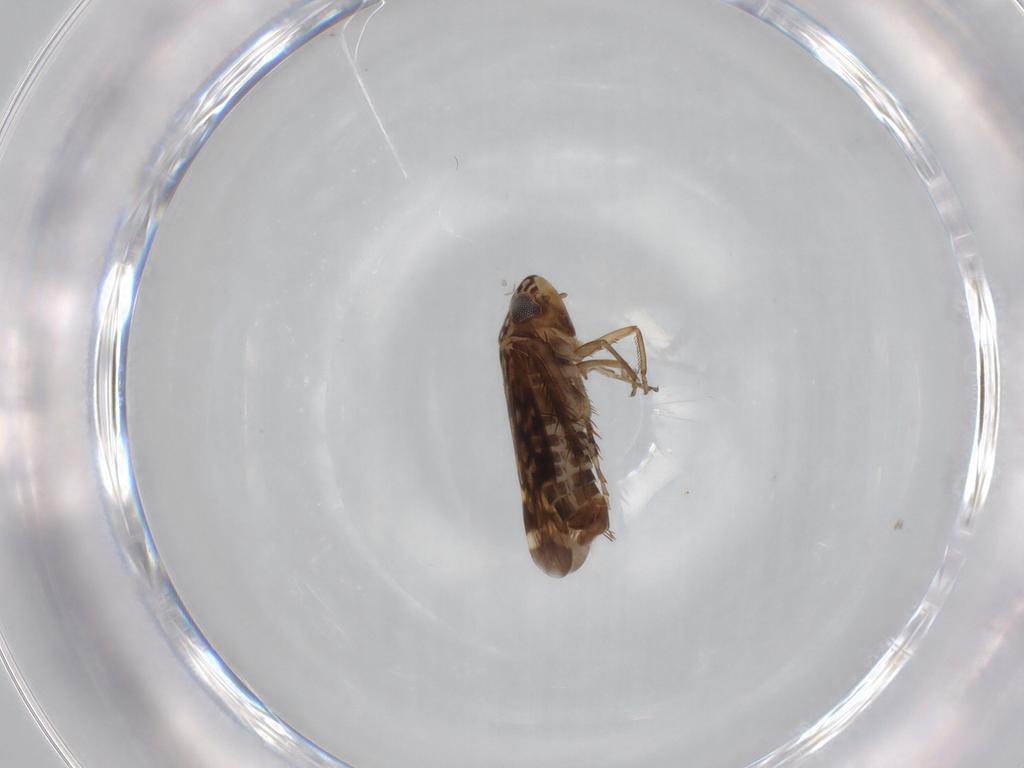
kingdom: Animalia
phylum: Arthropoda
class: Insecta
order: Hemiptera
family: Cicadellidae
